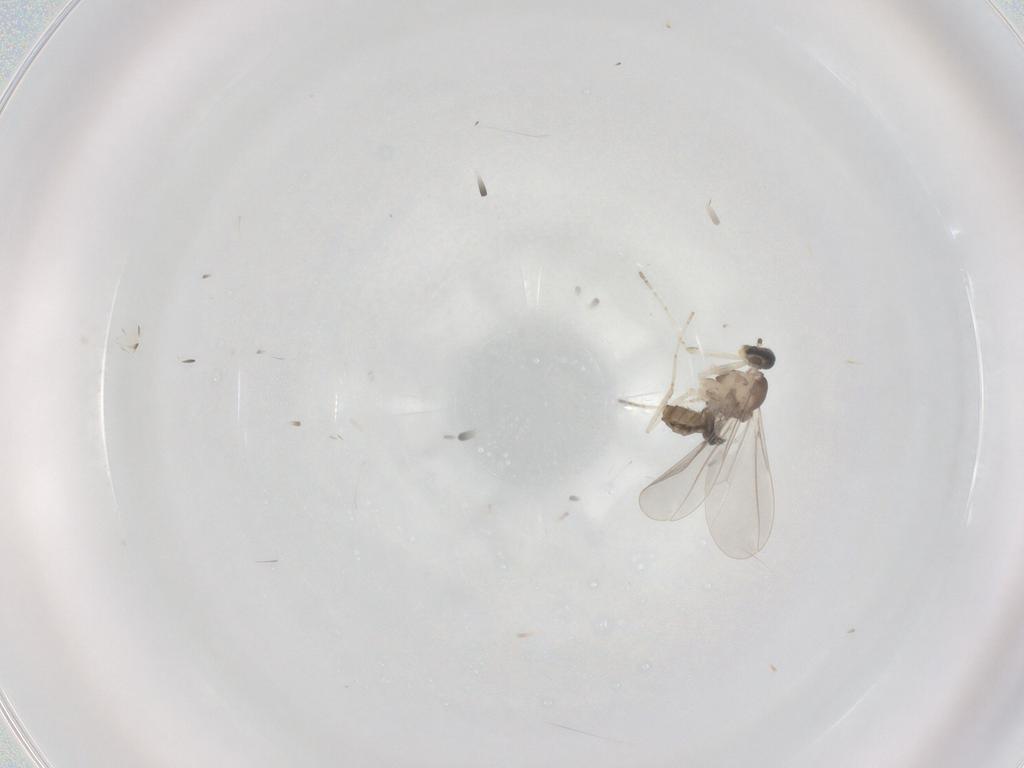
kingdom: Animalia
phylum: Arthropoda
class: Insecta
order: Diptera
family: Cecidomyiidae
